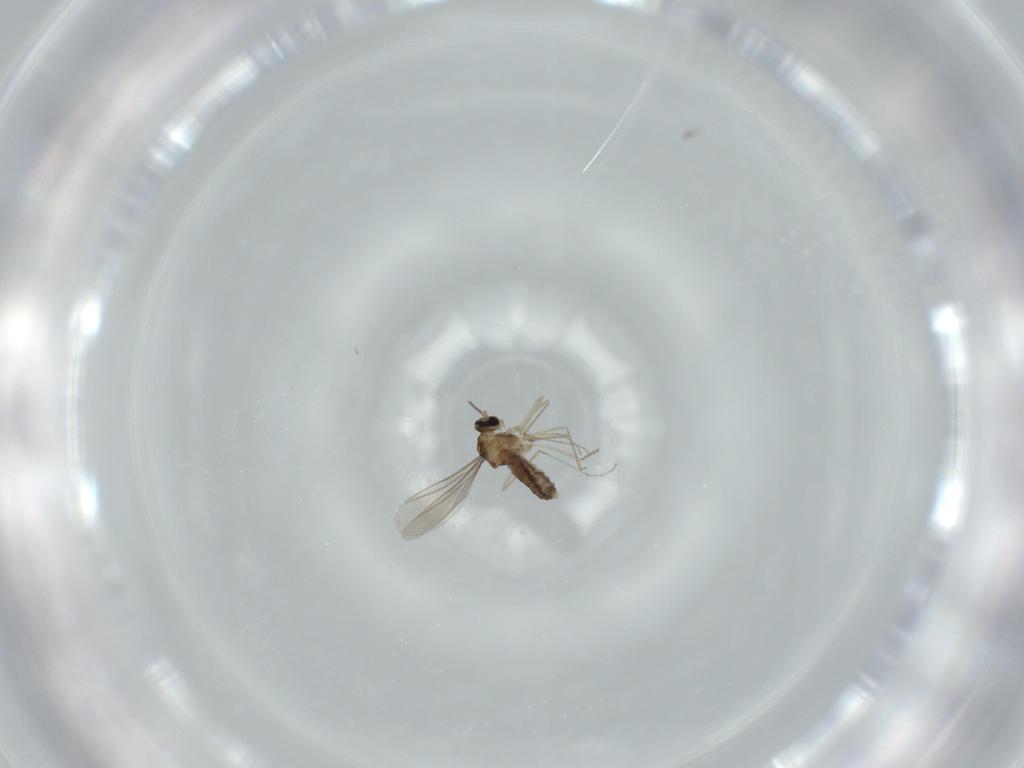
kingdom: Animalia
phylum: Arthropoda
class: Insecta
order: Diptera
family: Cecidomyiidae
